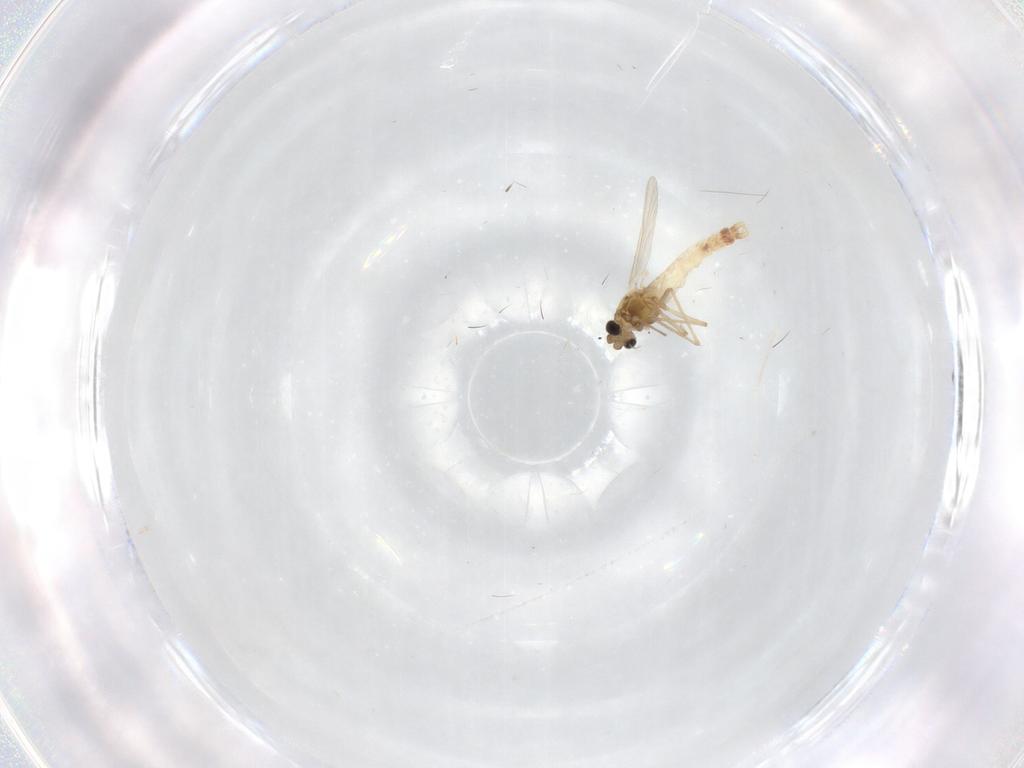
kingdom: Animalia
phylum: Arthropoda
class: Insecta
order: Diptera
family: Chironomidae
